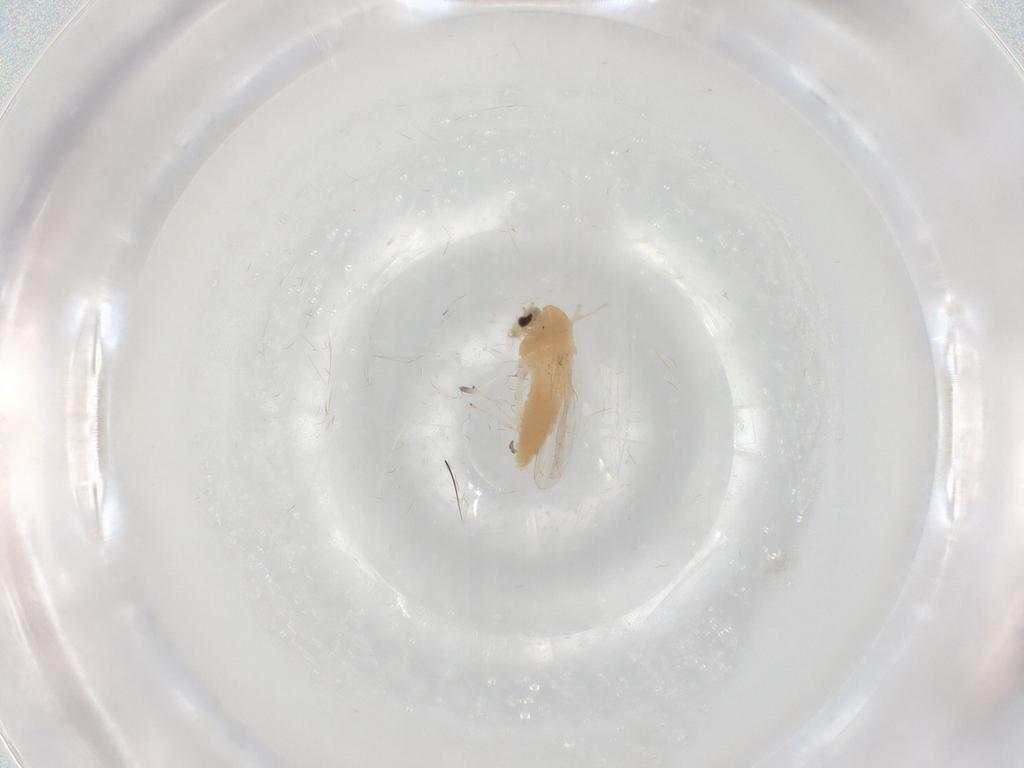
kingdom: Animalia
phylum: Arthropoda
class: Insecta
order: Diptera
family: Chironomidae
